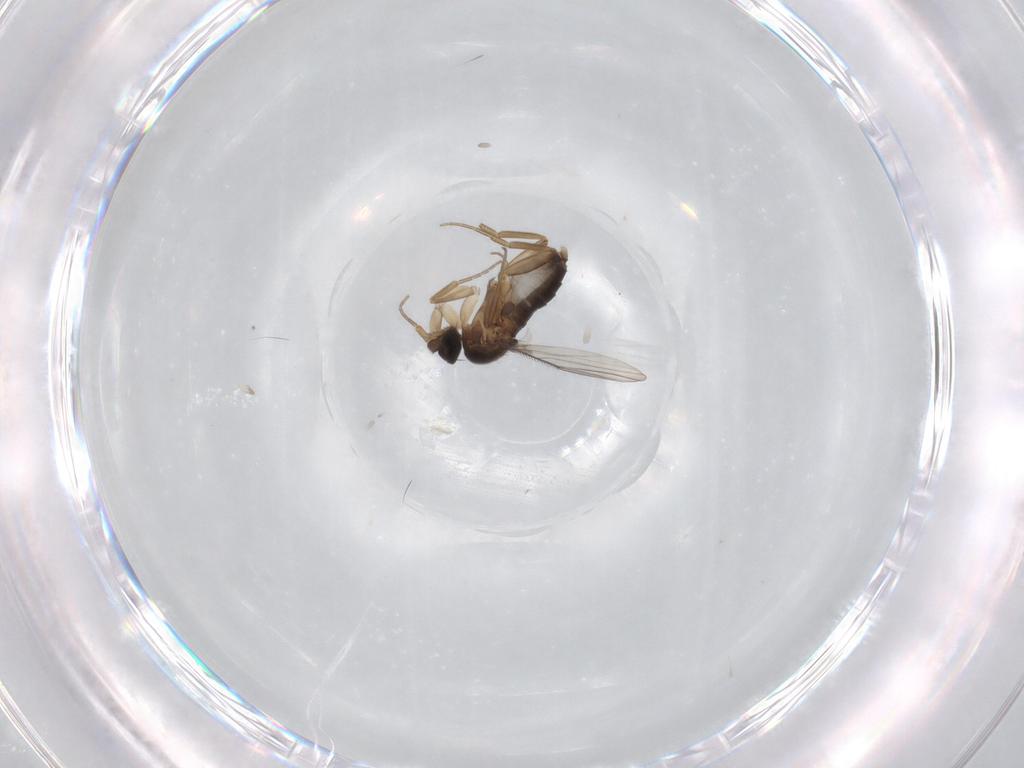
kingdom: Animalia
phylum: Arthropoda
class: Insecta
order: Diptera
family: Phoridae
